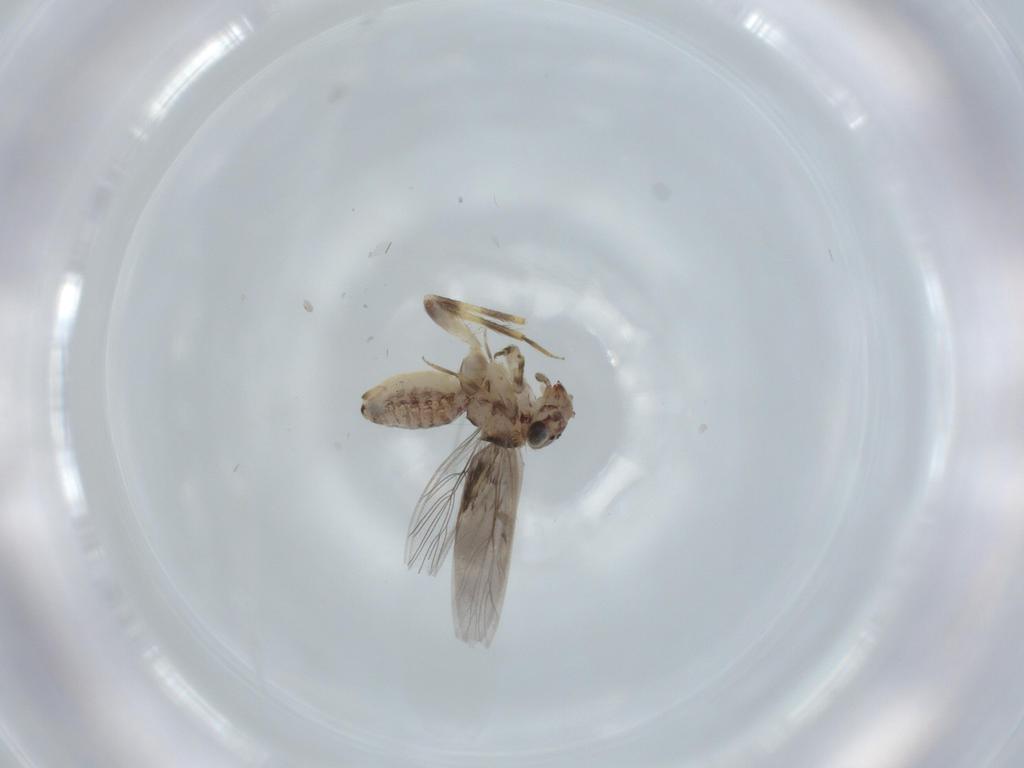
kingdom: Animalia
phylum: Arthropoda
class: Insecta
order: Psocodea
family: Lepidopsocidae
